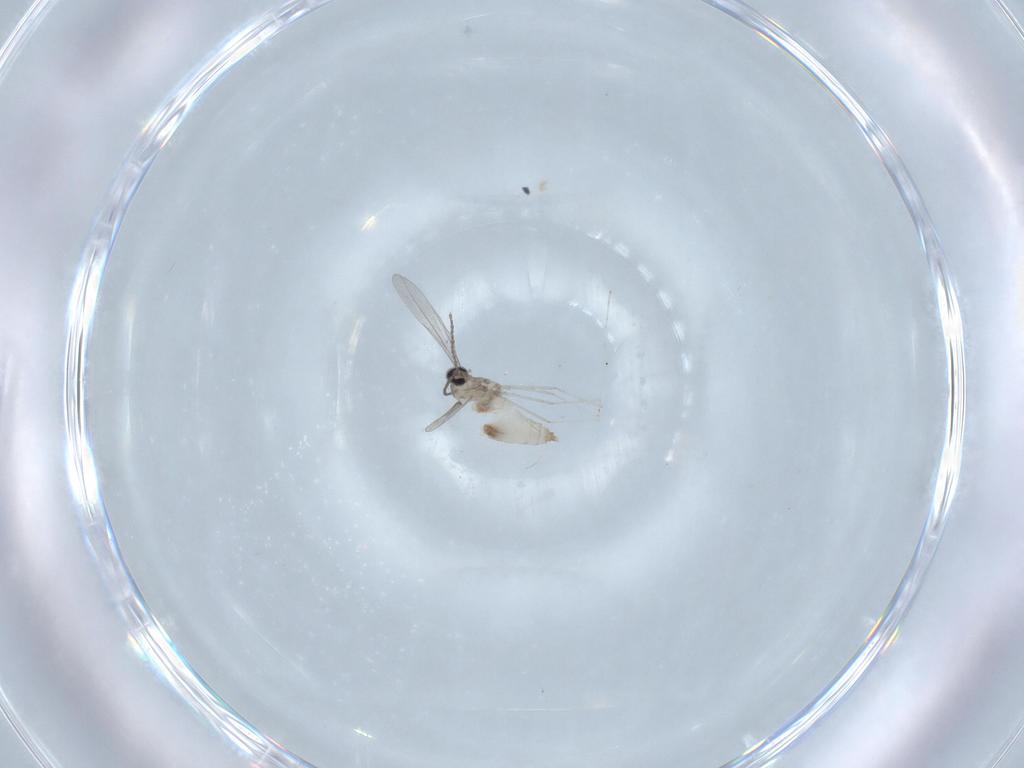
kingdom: Animalia
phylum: Arthropoda
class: Insecta
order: Diptera
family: Cecidomyiidae
